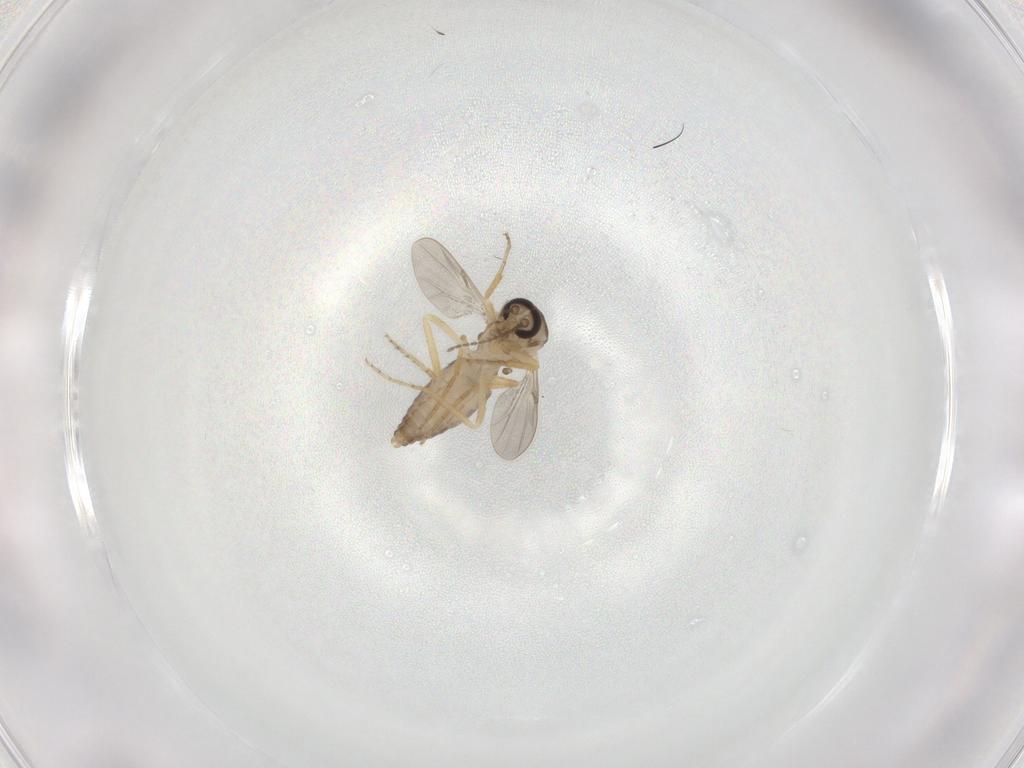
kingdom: Animalia
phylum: Arthropoda
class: Insecta
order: Diptera
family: Ceratopogonidae
